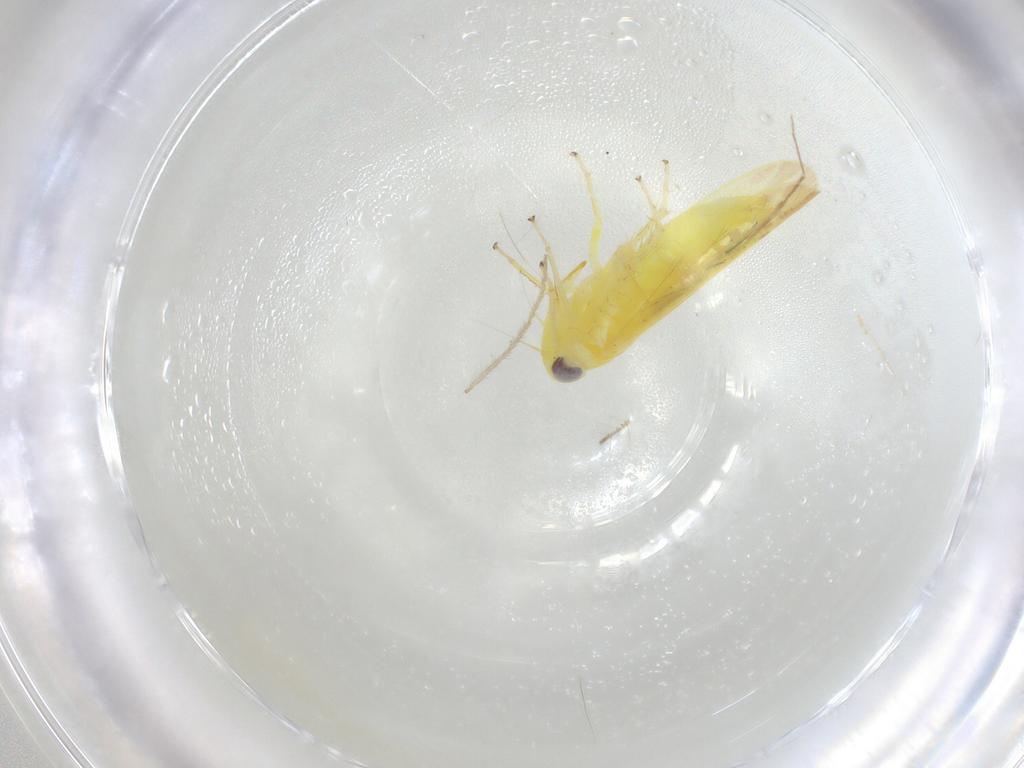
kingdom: Animalia
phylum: Arthropoda
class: Insecta
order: Hemiptera
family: Cicadellidae
